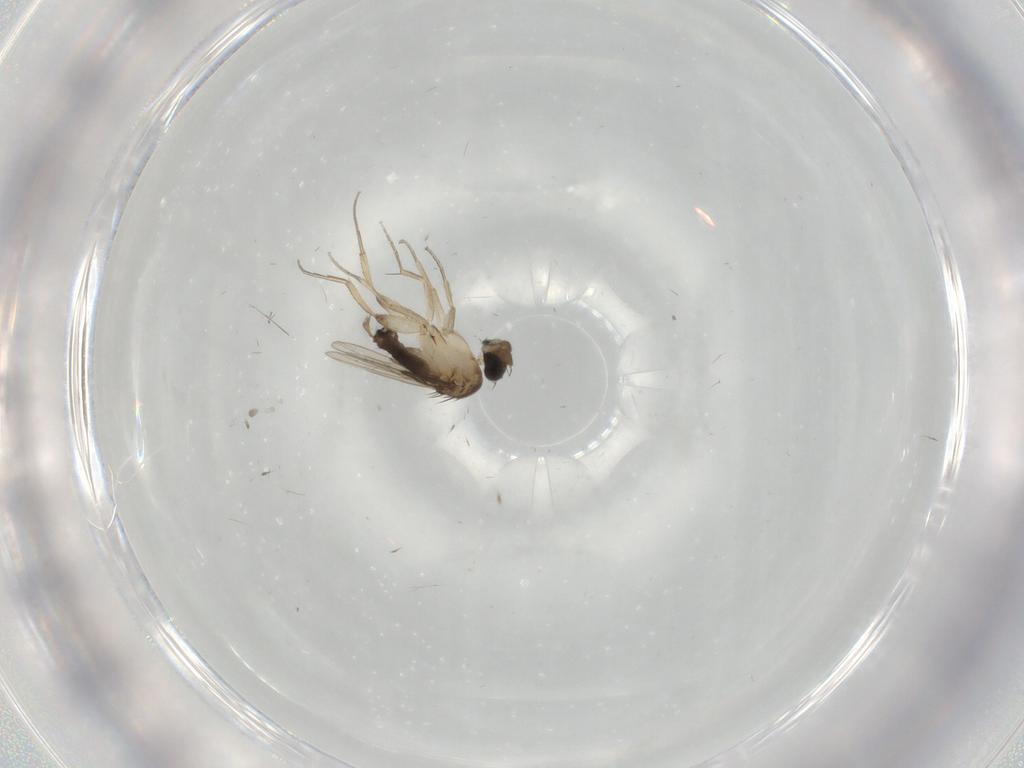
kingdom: Animalia
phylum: Arthropoda
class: Insecta
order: Diptera
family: Phoridae
